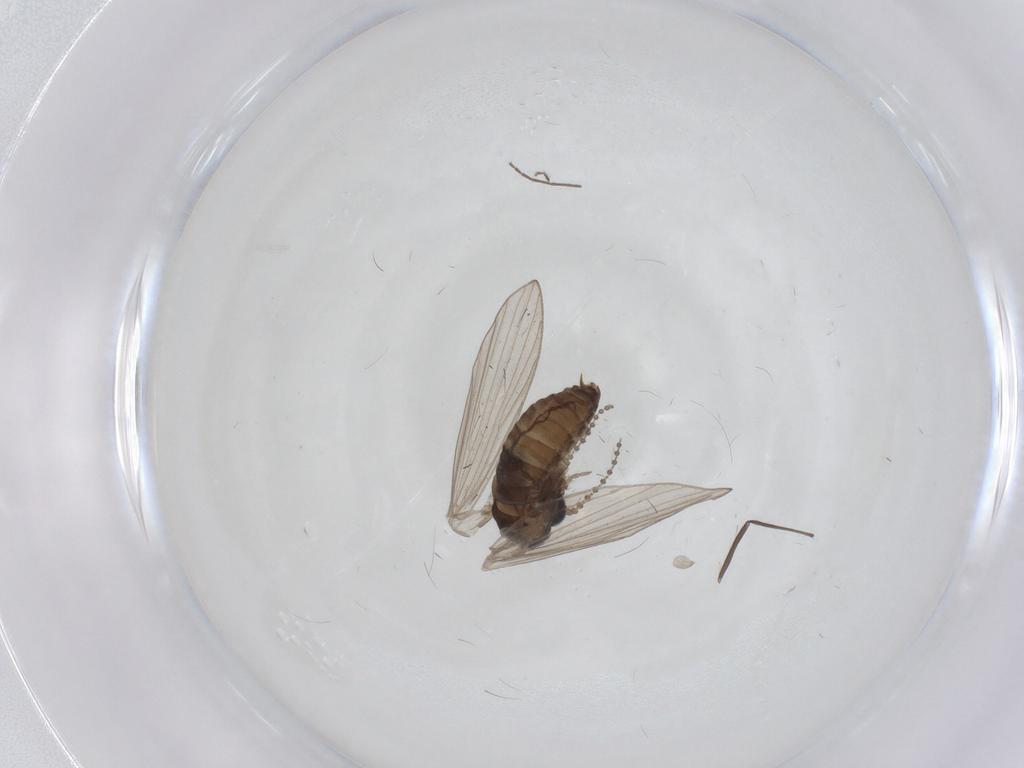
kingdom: Animalia
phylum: Arthropoda
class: Insecta
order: Diptera
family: Psychodidae
